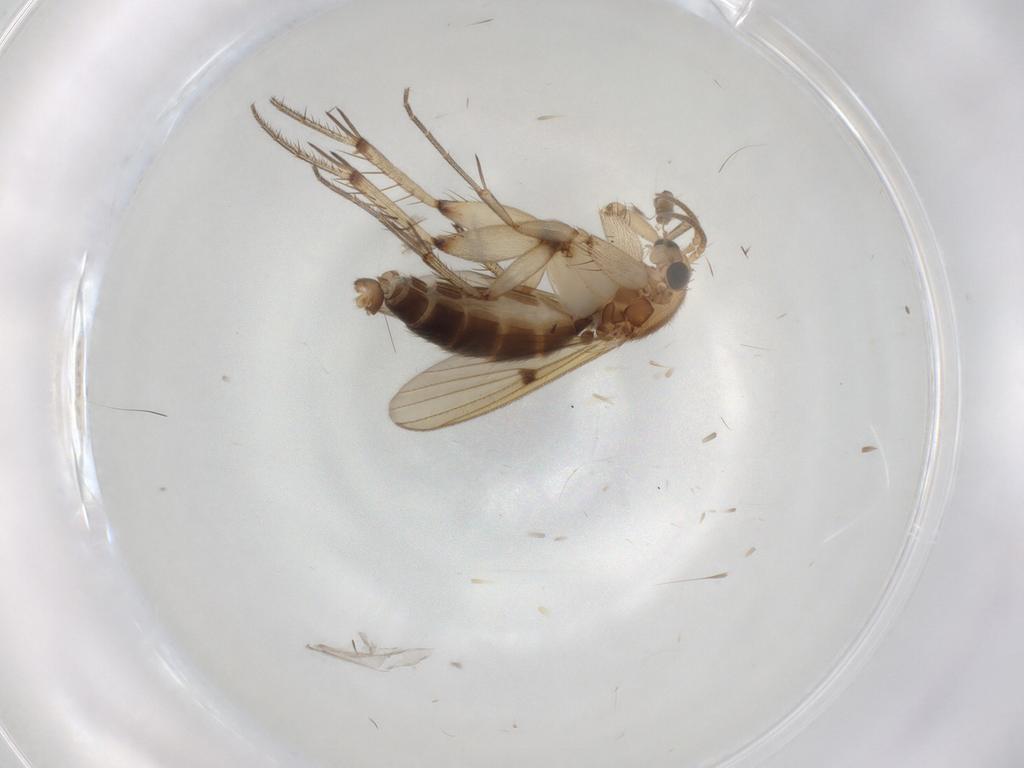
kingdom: Animalia
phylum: Arthropoda
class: Insecta
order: Diptera
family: Mycetophilidae
